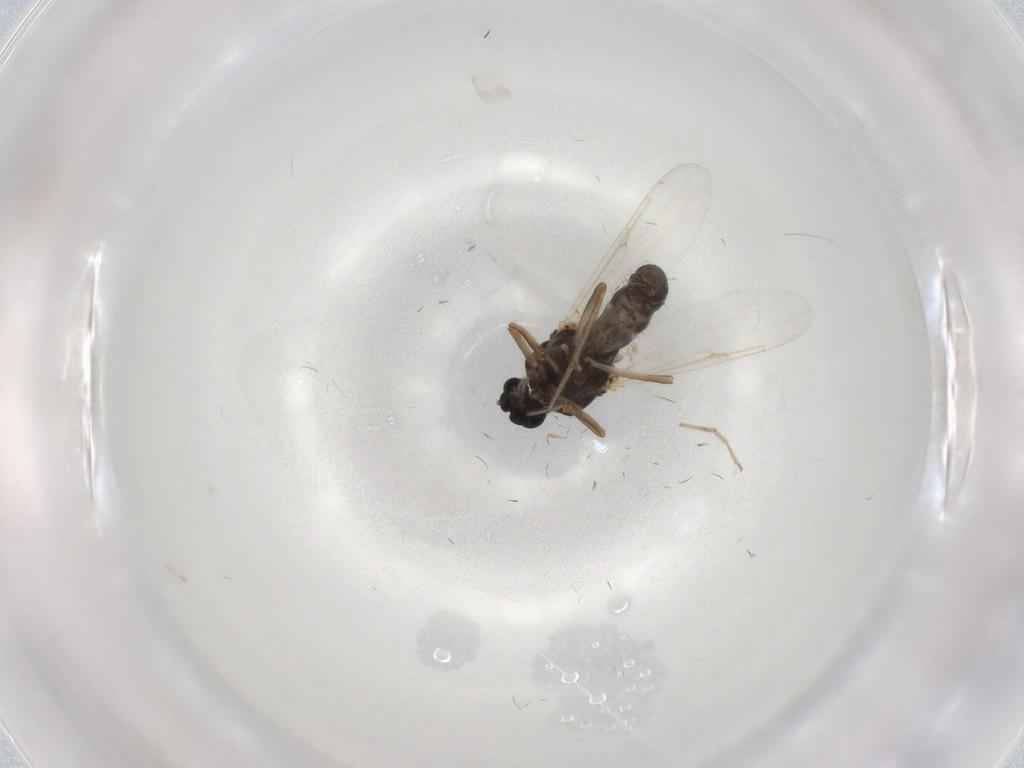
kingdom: Animalia
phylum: Arthropoda
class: Insecta
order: Diptera
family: Ceratopogonidae
